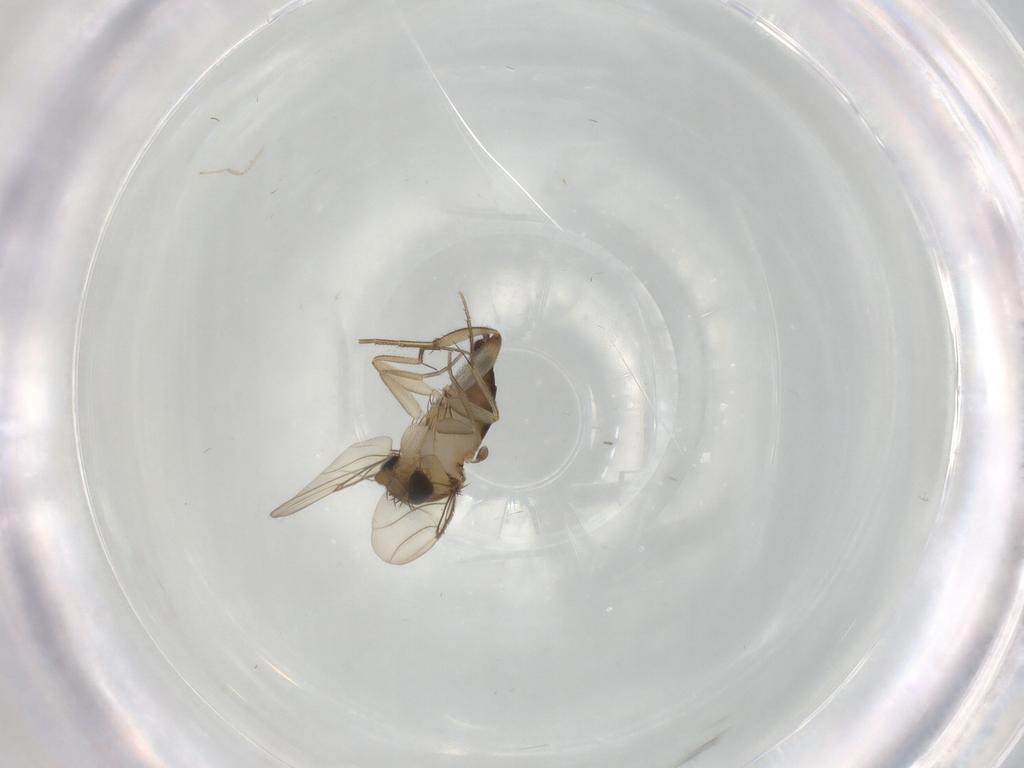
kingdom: Animalia
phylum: Arthropoda
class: Insecta
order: Diptera
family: Phoridae
